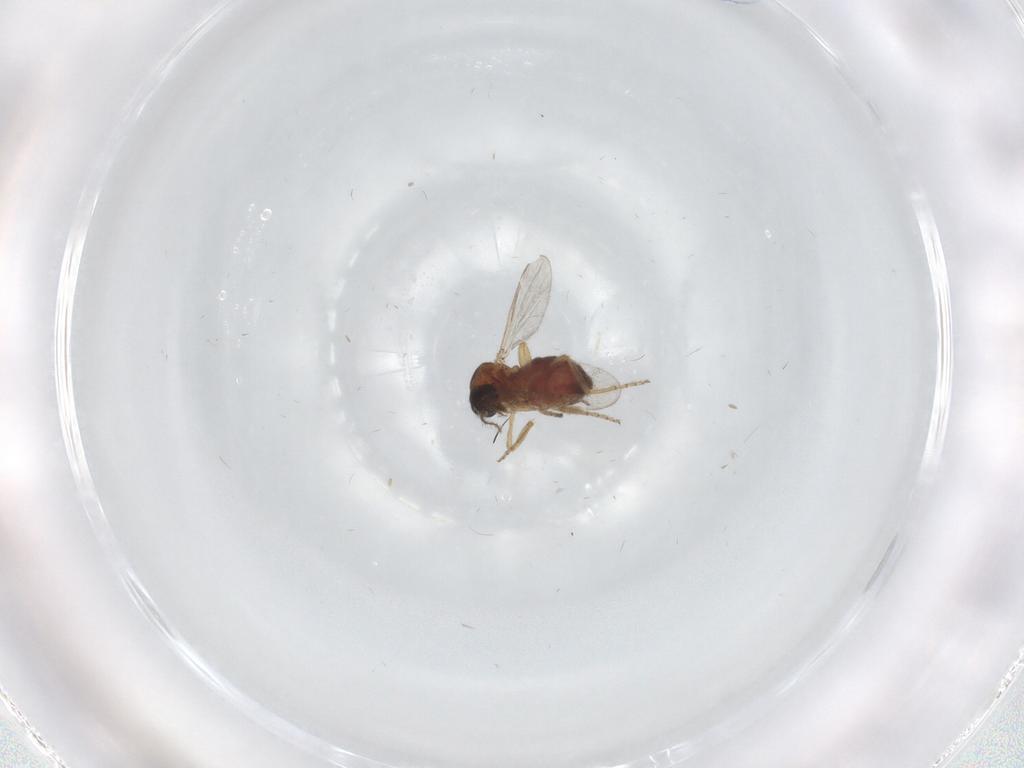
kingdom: Animalia
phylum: Arthropoda
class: Insecta
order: Diptera
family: Ceratopogonidae
